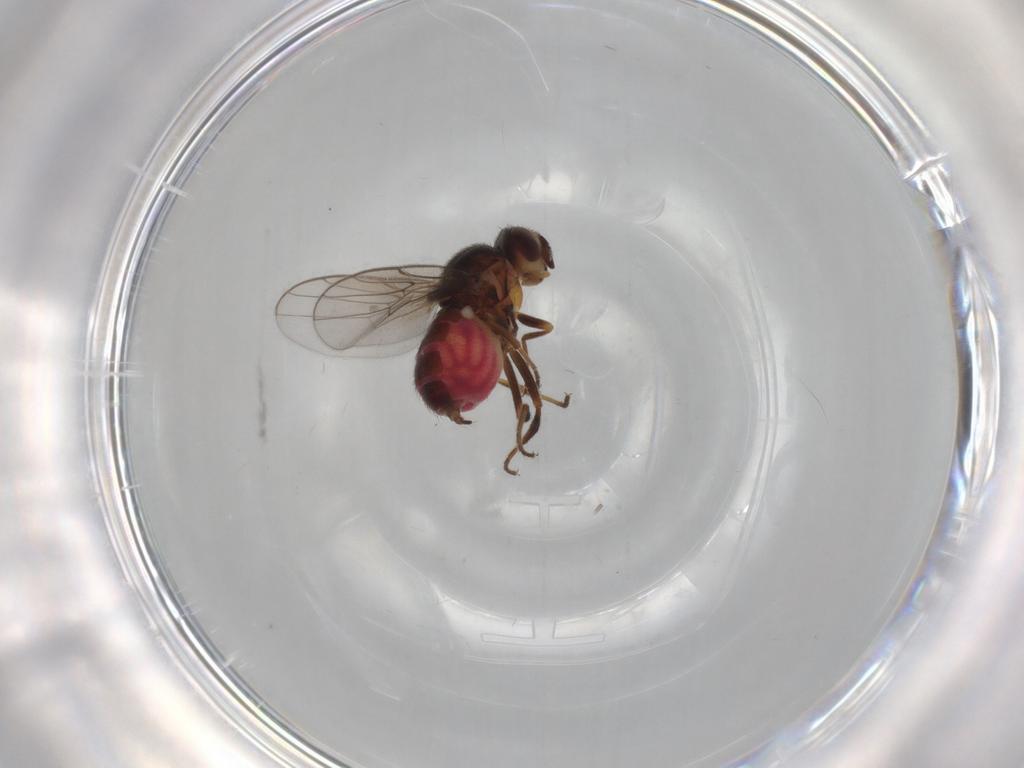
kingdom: Animalia
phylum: Arthropoda
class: Insecta
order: Diptera
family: Chloropidae
